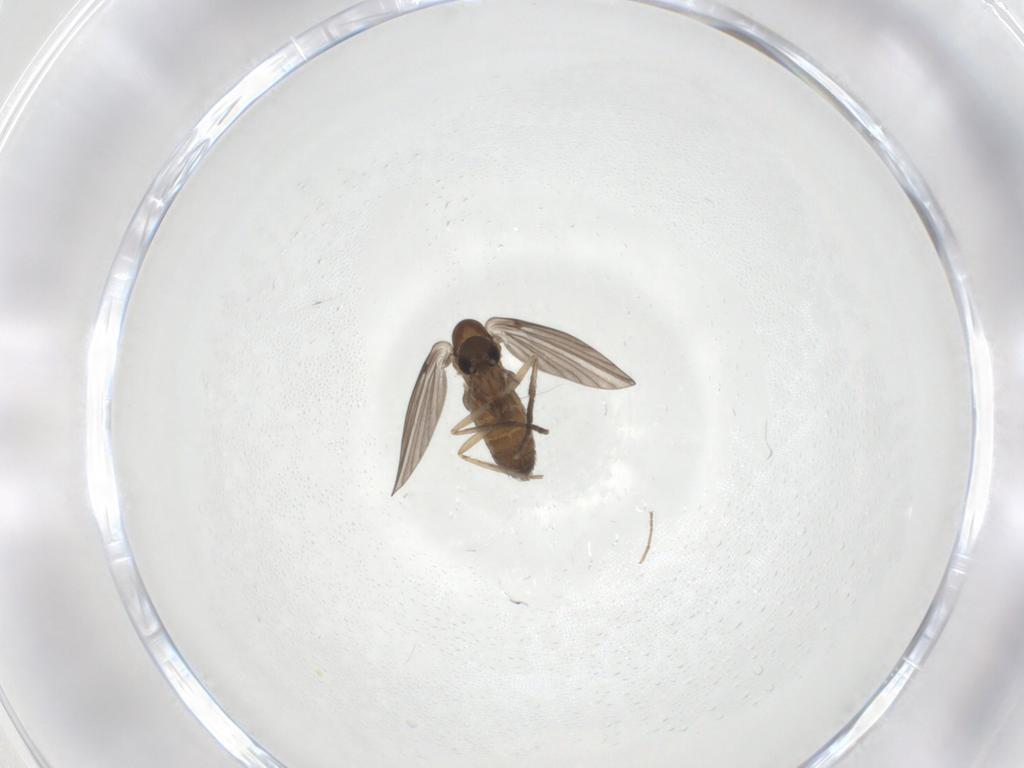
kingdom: Animalia
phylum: Arthropoda
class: Insecta
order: Diptera
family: Psychodidae
